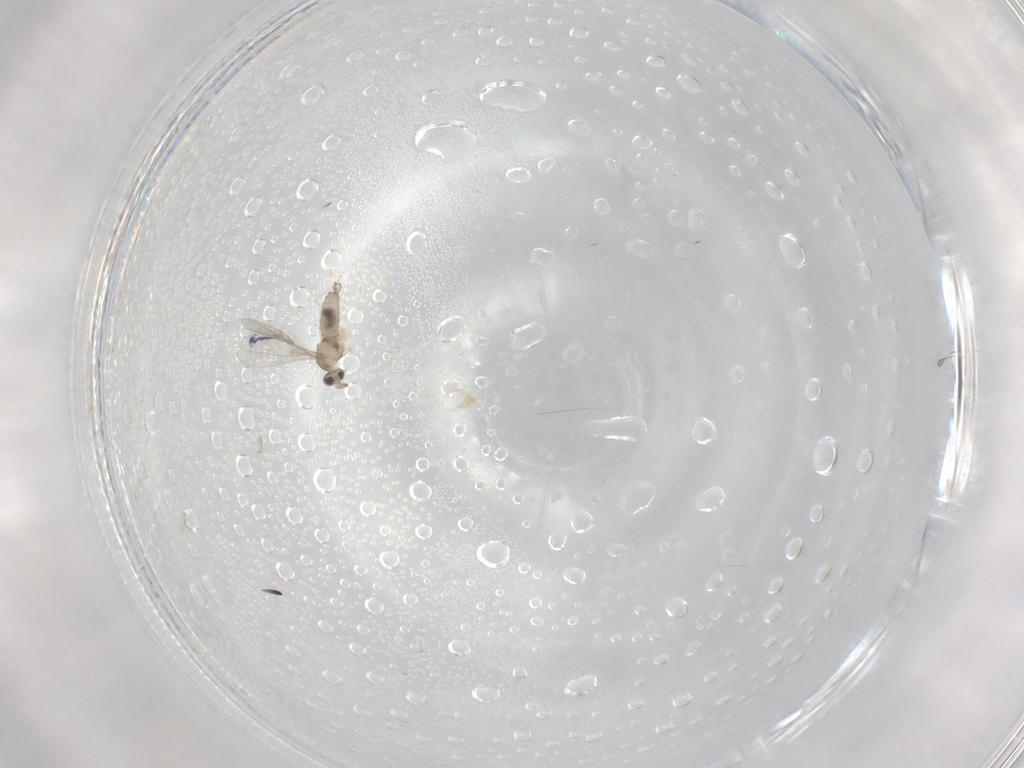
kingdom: Animalia
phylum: Arthropoda
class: Insecta
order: Diptera
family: Cecidomyiidae
